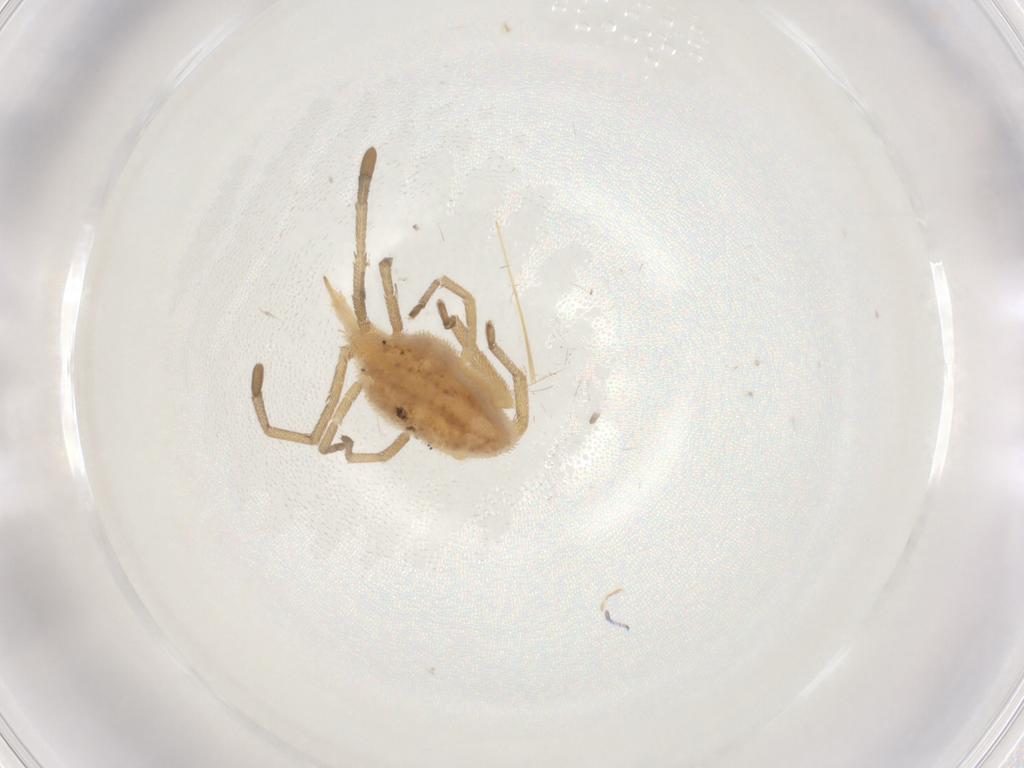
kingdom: Animalia
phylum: Arthropoda
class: Arachnida
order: Trombidiformes
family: Smarididae
